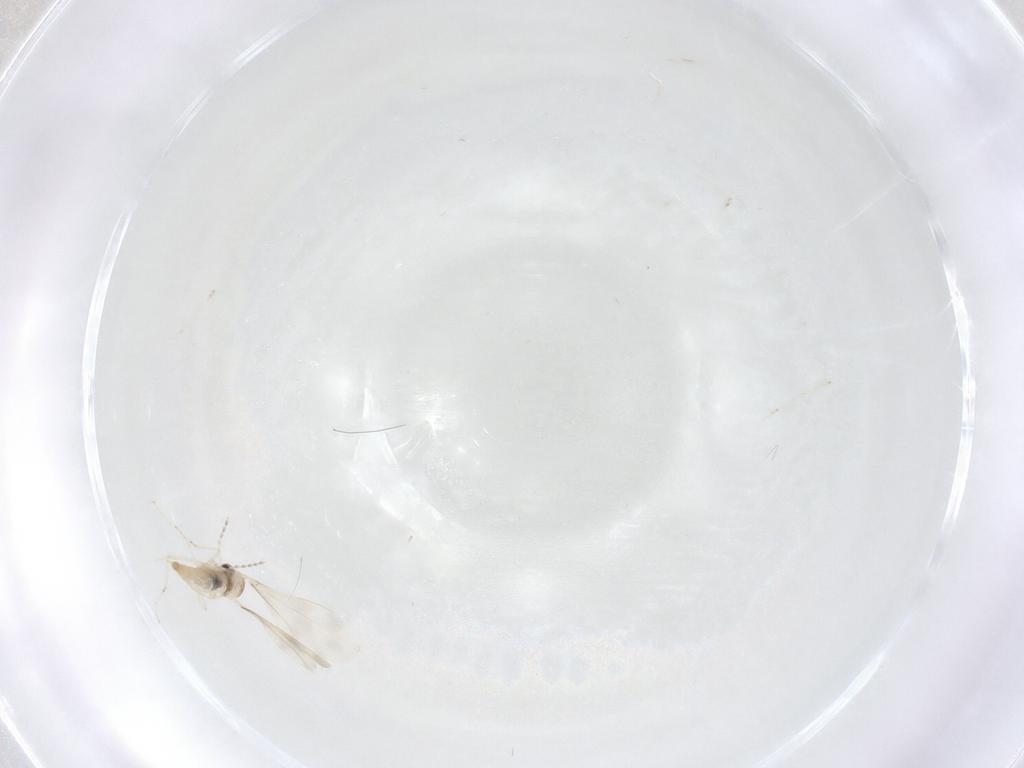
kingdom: Animalia
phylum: Arthropoda
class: Insecta
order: Diptera
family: Cecidomyiidae
